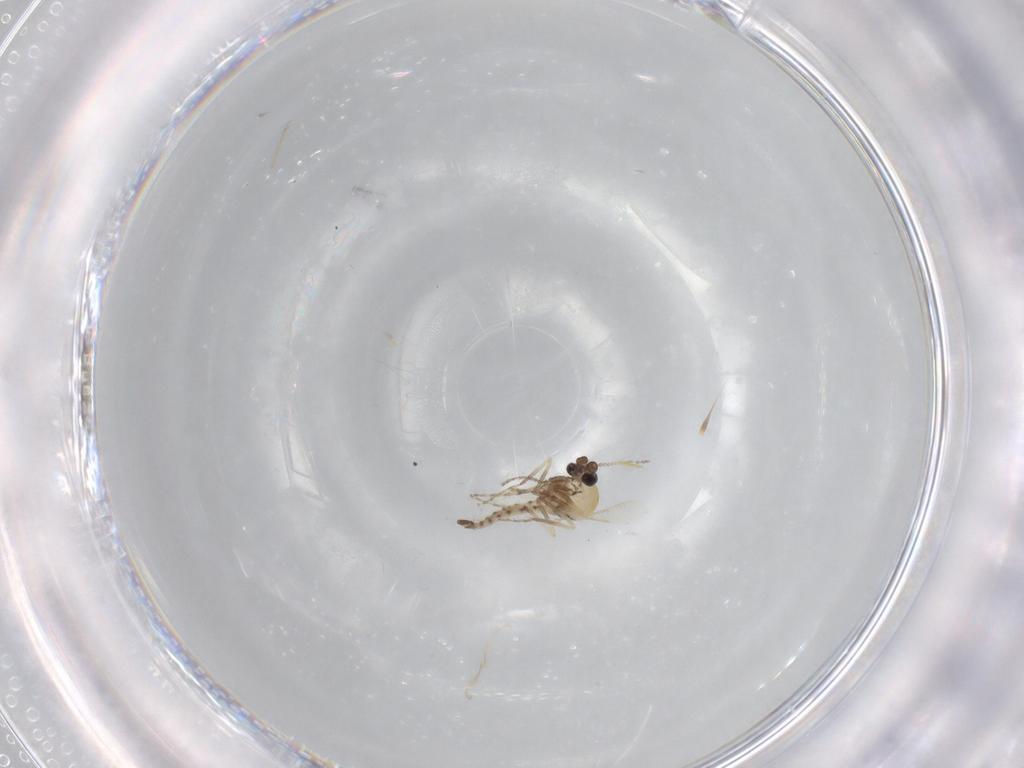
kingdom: Animalia
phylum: Arthropoda
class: Insecta
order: Diptera
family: Ceratopogonidae
